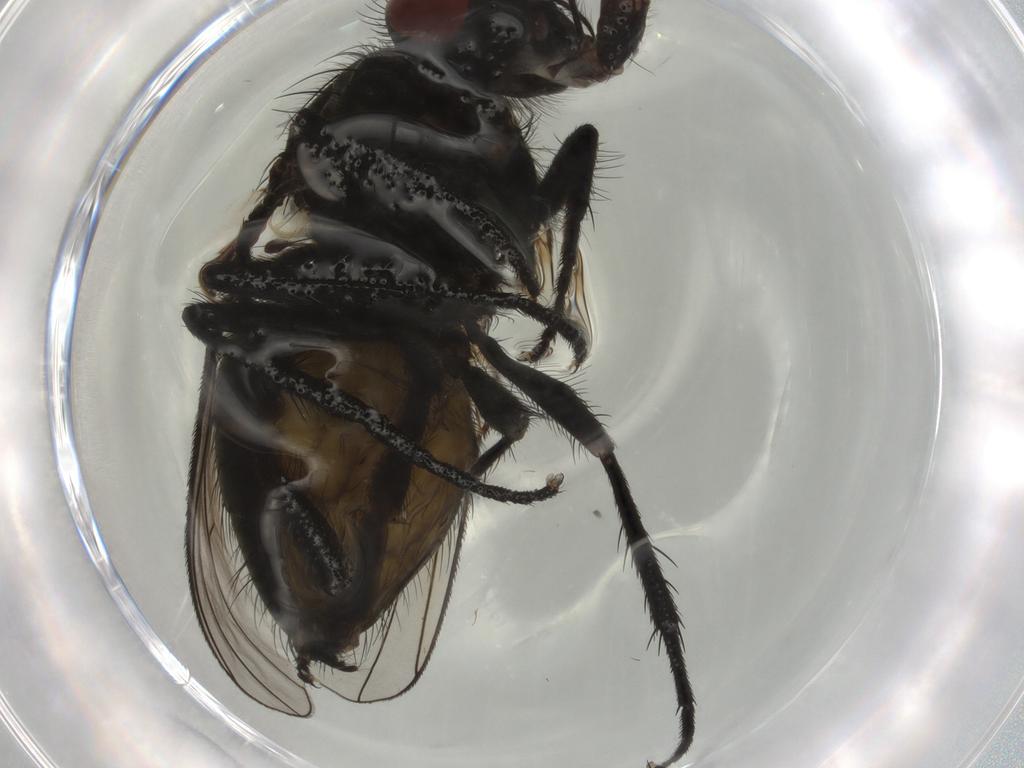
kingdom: Animalia
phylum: Arthropoda
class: Insecta
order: Diptera
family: Muscidae
